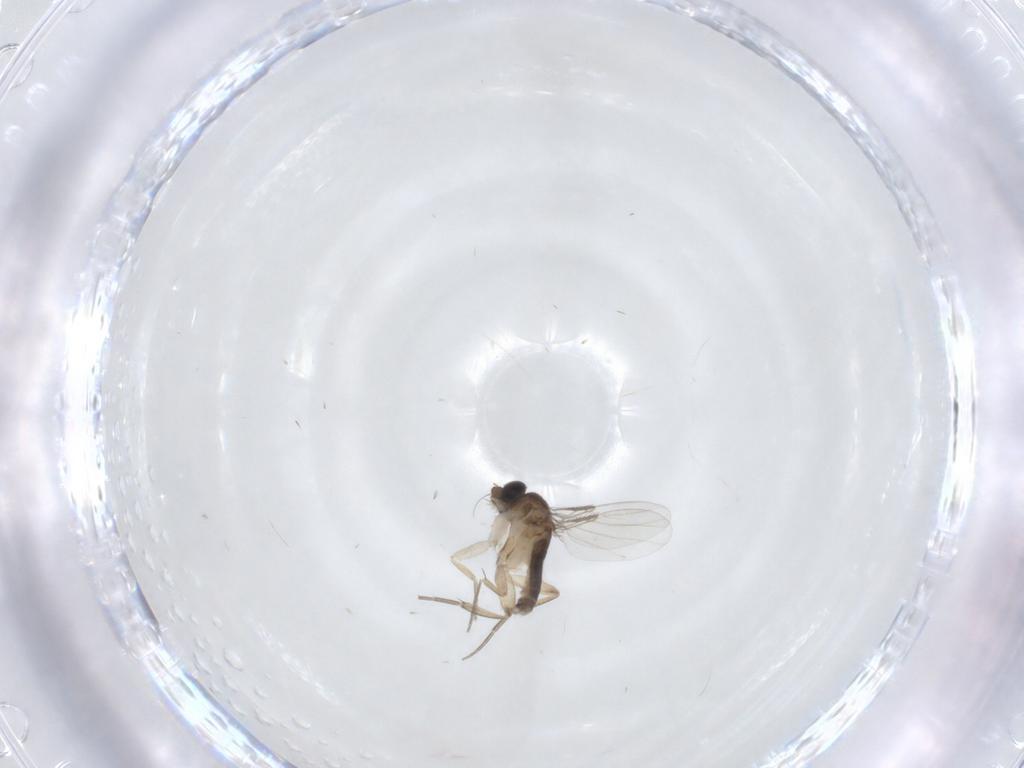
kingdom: Animalia
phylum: Arthropoda
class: Insecta
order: Diptera
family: Phoridae
